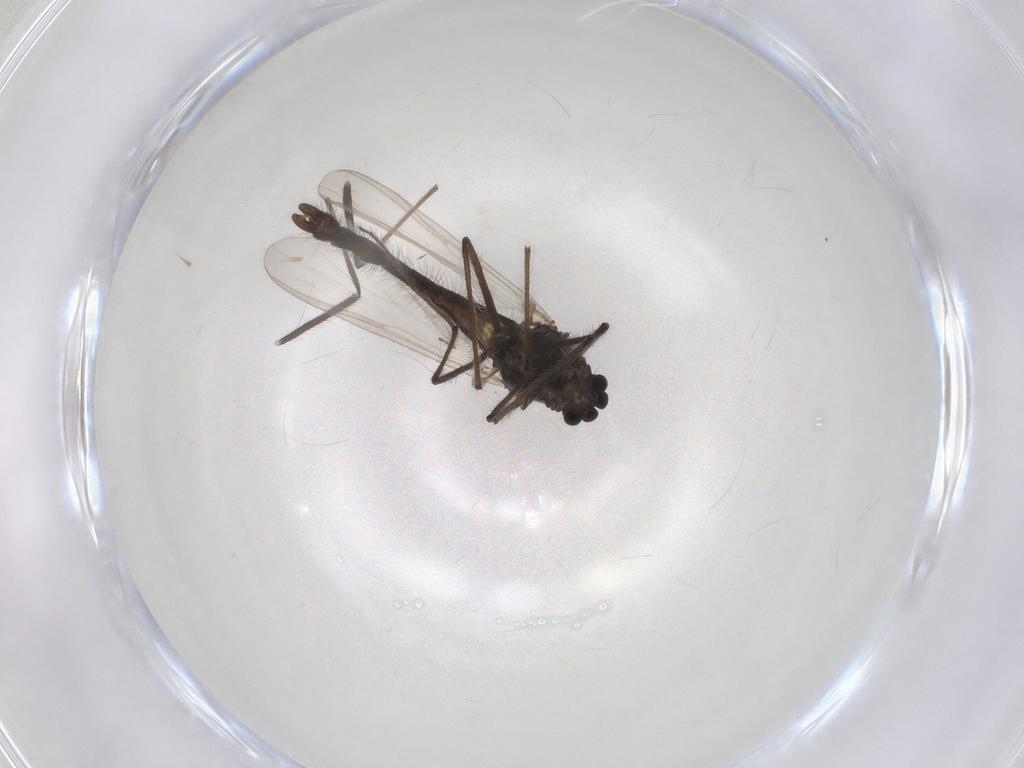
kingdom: Animalia
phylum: Arthropoda
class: Insecta
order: Diptera
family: Chironomidae
